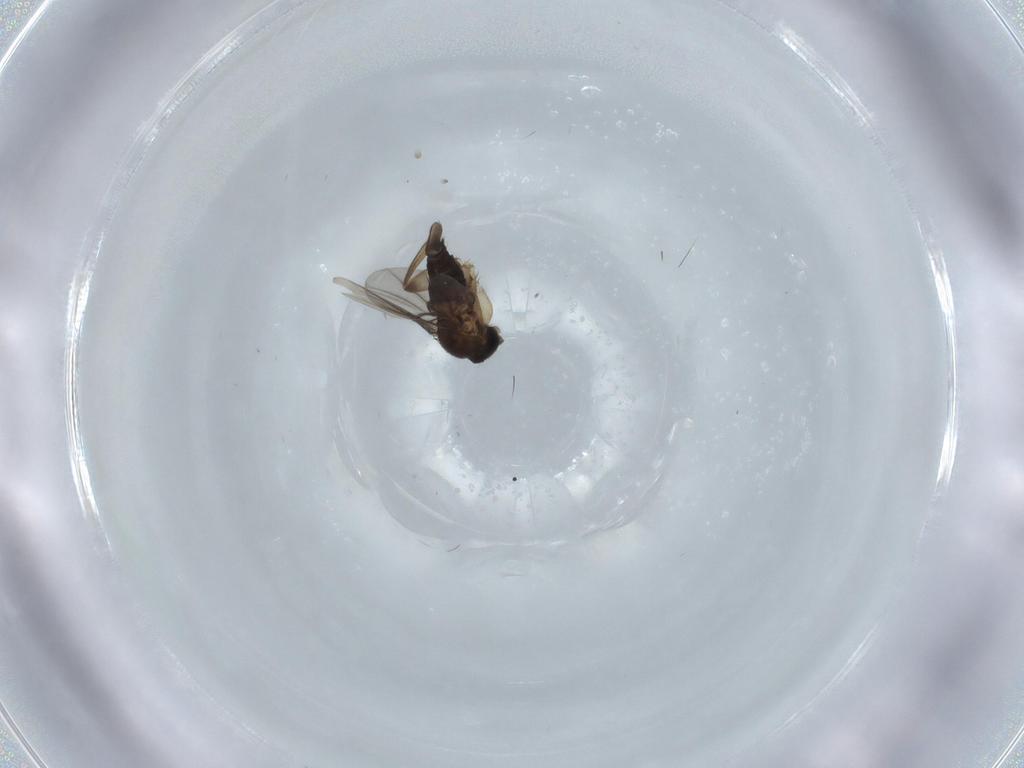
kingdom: Animalia
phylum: Arthropoda
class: Insecta
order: Diptera
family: Phoridae
